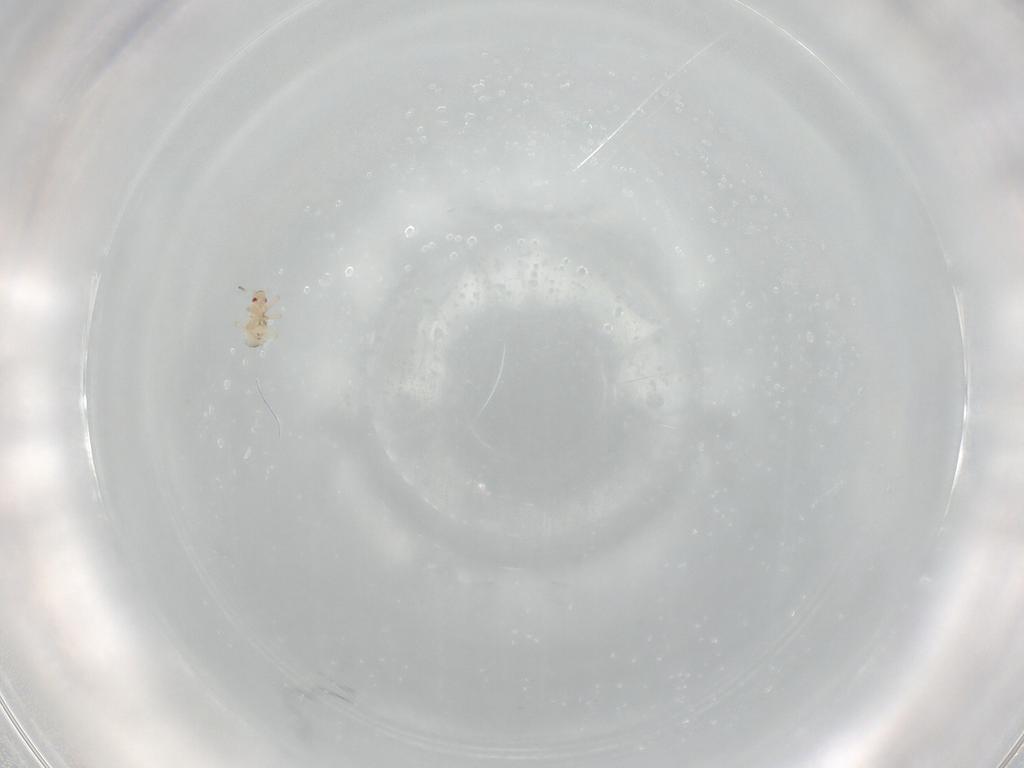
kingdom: Animalia
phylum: Arthropoda
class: Insecta
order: Hemiptera
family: Aphididae
